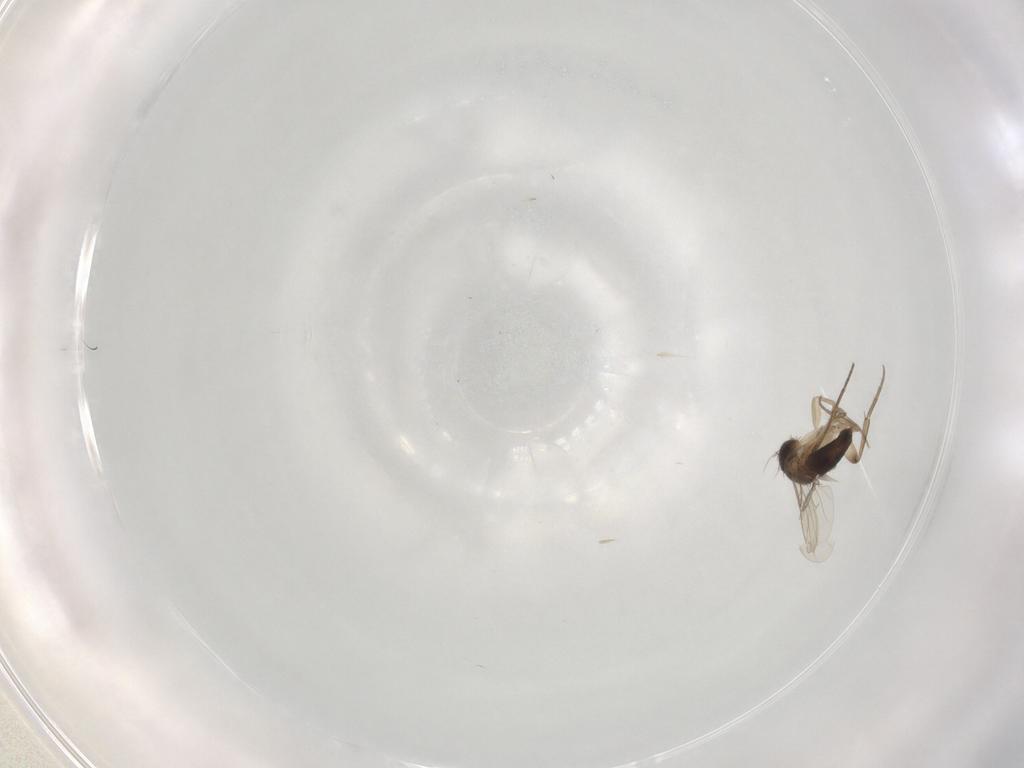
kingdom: Animalia
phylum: Arthropoda
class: Insecta
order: Diptera
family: Phoridae
